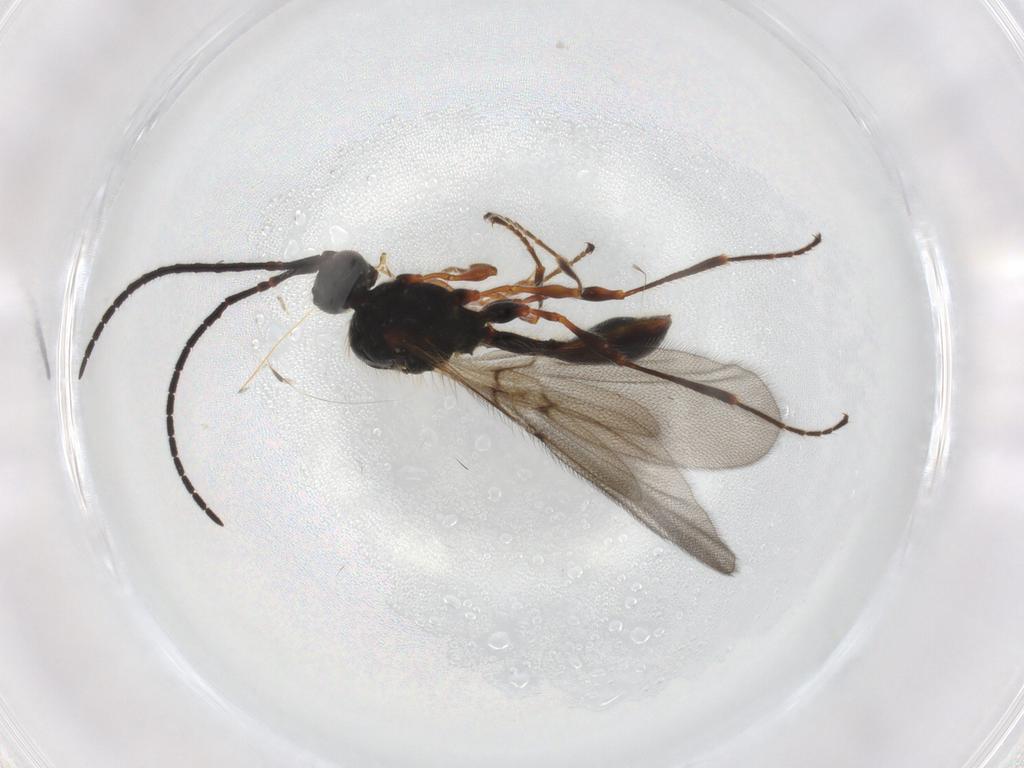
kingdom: Animalia
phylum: Arthropoda
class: Insecta
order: Hymenoptera
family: Diapriidae
